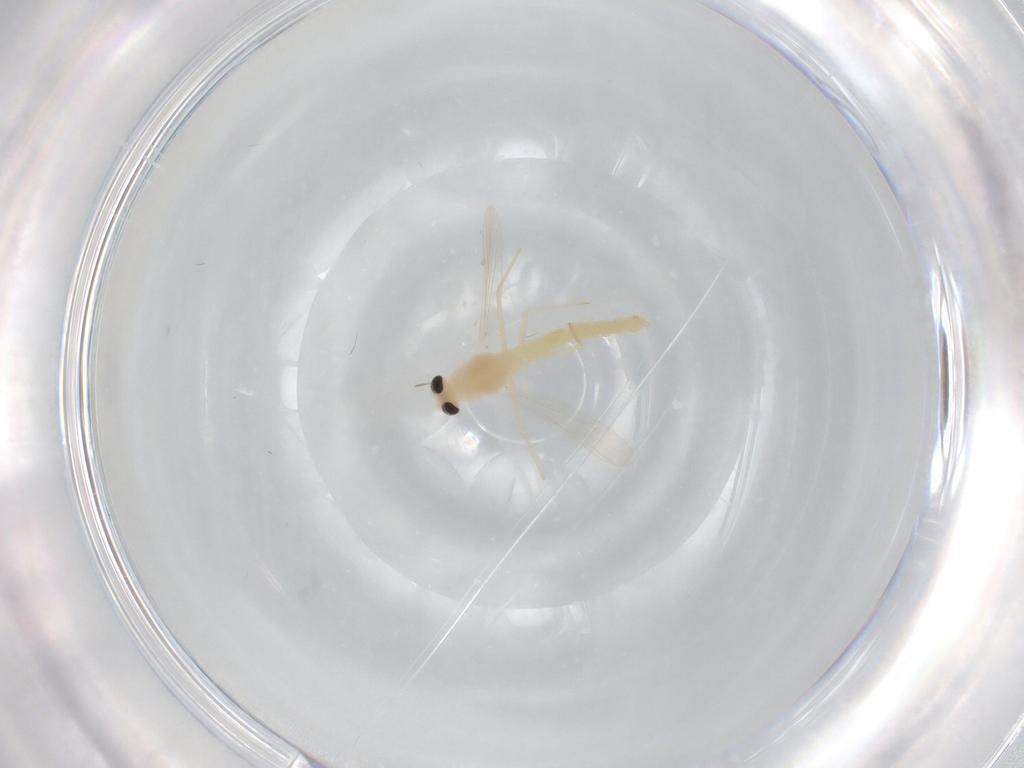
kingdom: Animalia
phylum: Arthropoda
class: Insecta
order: Diptera
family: Chironomidae
